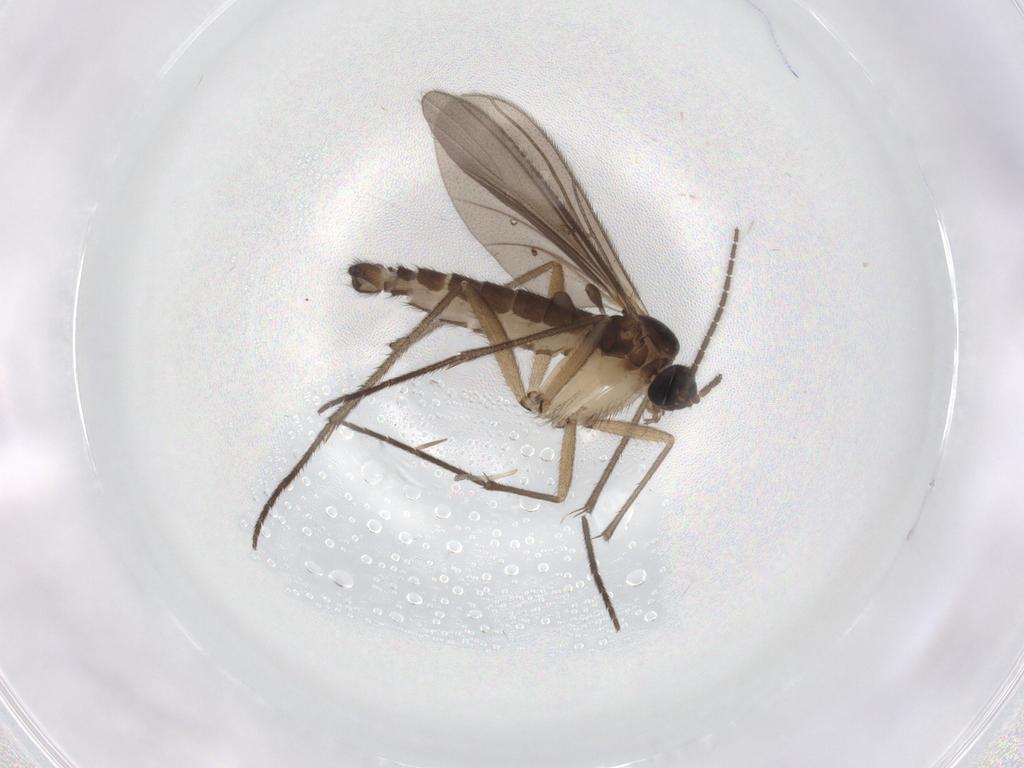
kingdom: Animalia
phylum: Arthropoda
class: Insecta
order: Diptera
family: Sciaridae
